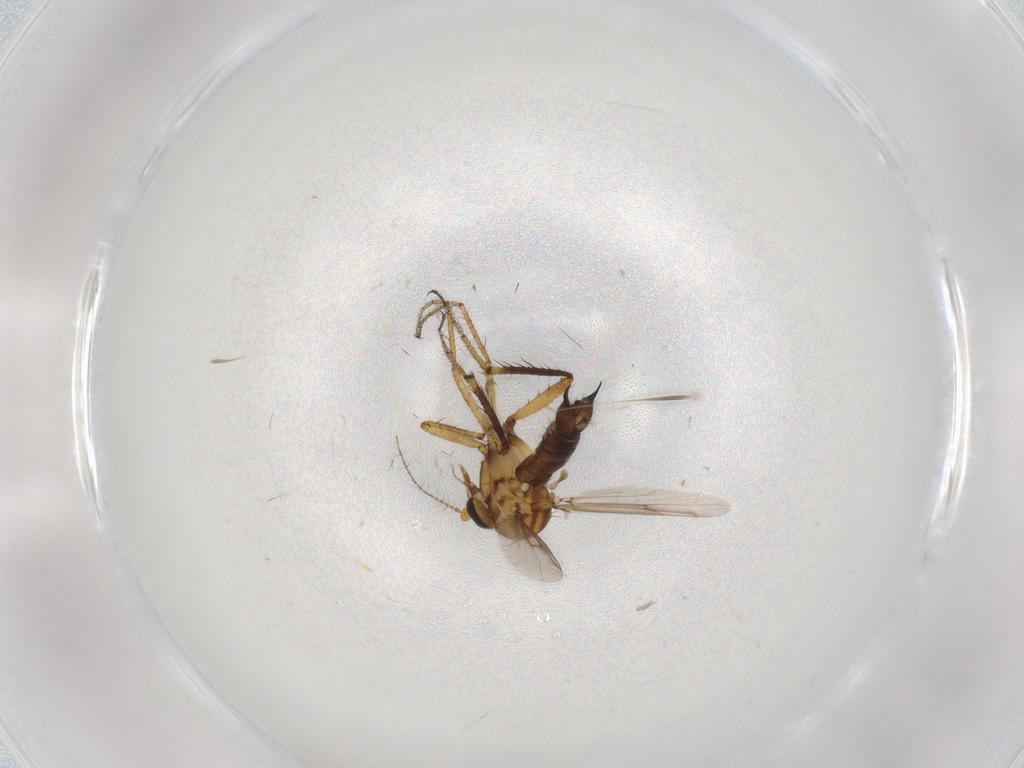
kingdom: Animalia
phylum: Arthropoda
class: Insecta
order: Diptera
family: Ceratopogonidae
